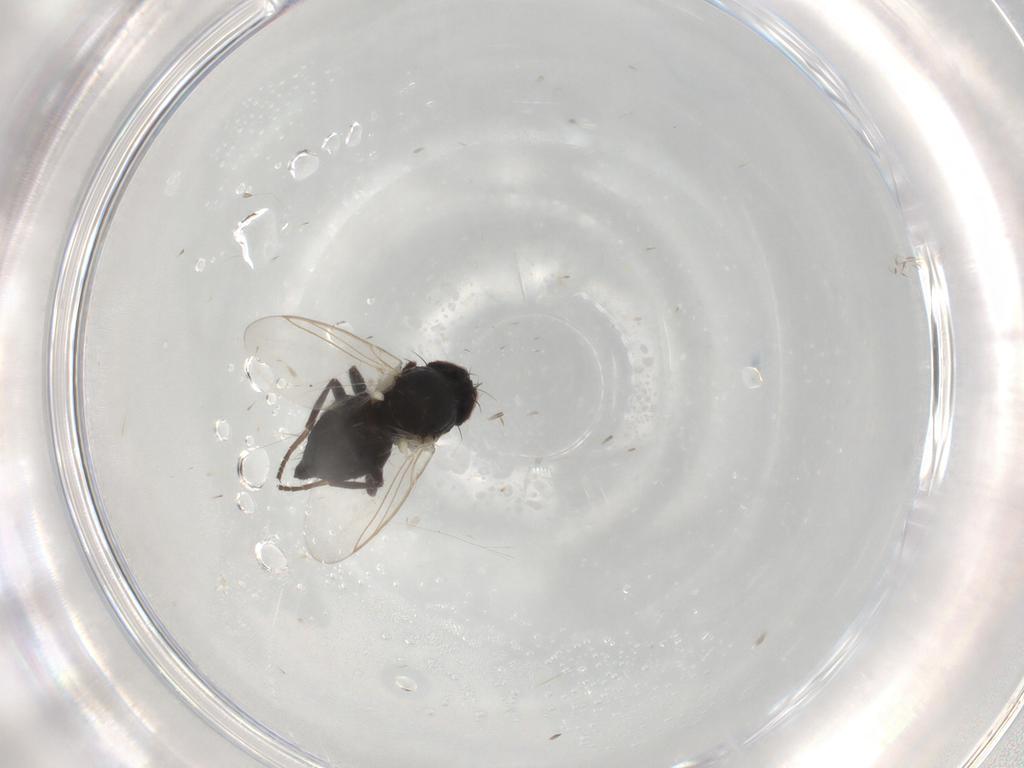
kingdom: Animalia
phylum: Arthropoda
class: Insecta
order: Diptera
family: Agromyzidae
